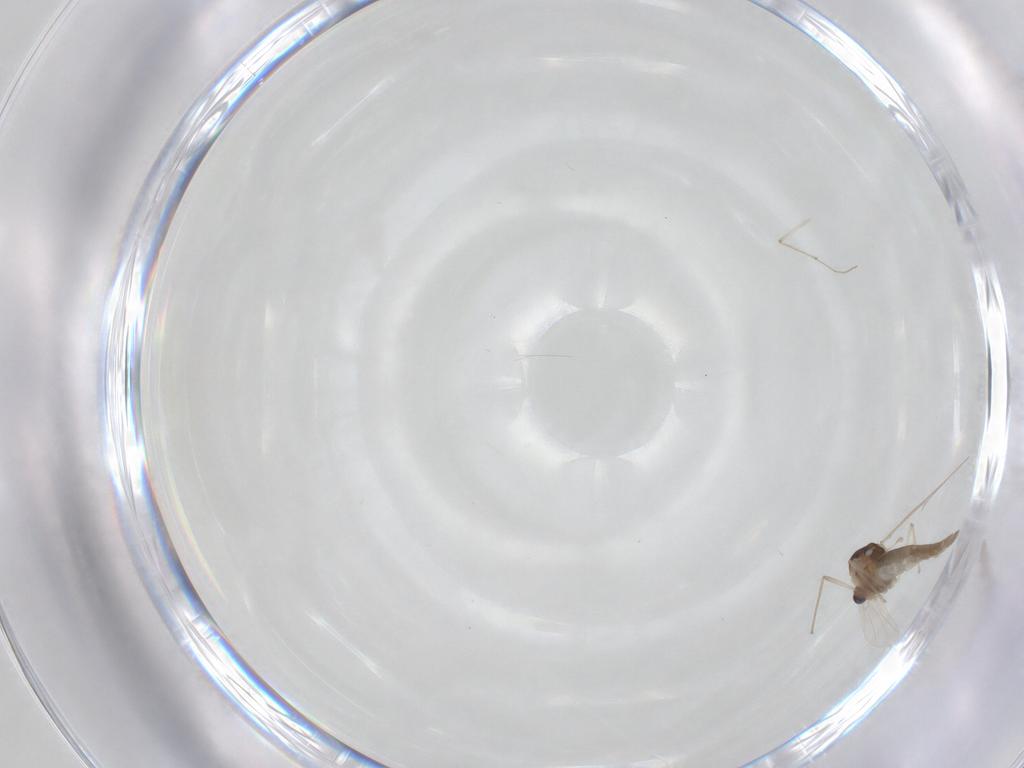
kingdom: Animalia
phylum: Arthropoda
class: Insecta
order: Diptera
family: Chironomidae
